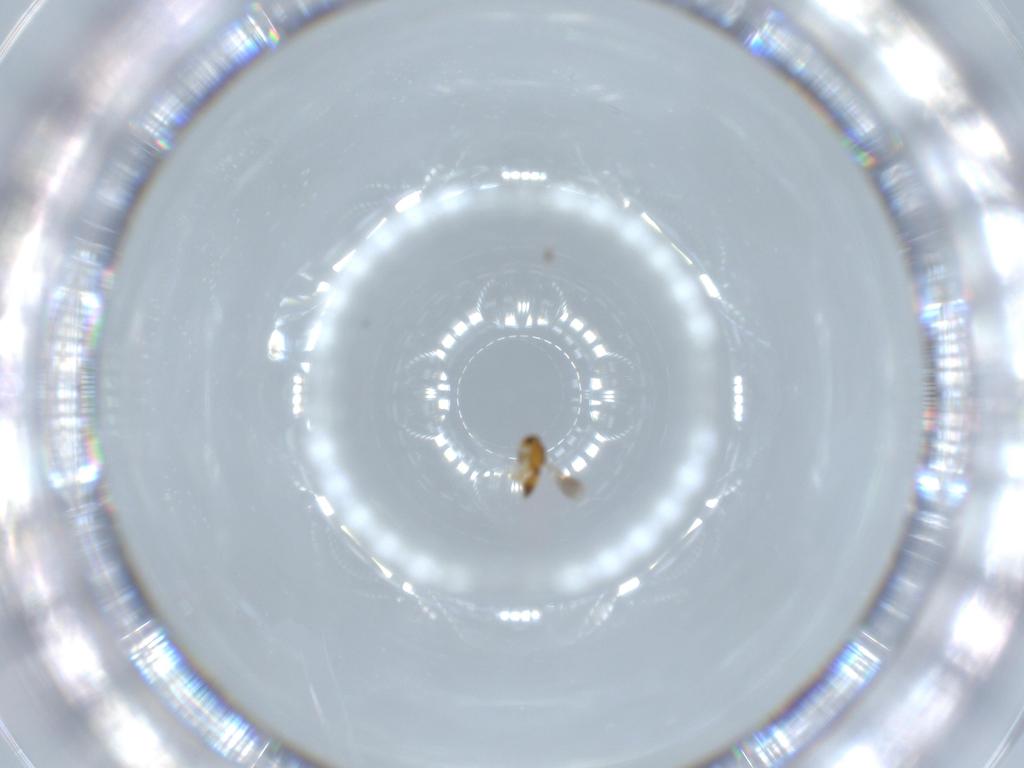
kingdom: Animalia
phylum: Arthropoda
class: Insecta
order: Hymenoptera
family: Platygastridae
